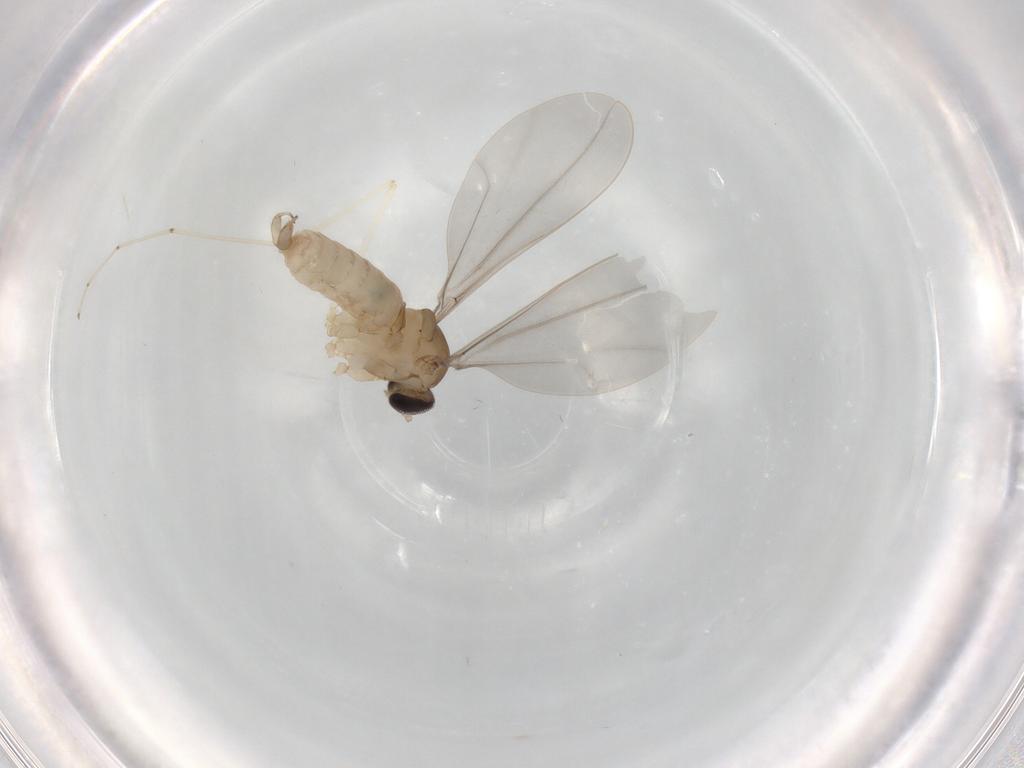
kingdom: Animalia
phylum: Arthropoda
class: Insecta
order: Diptera
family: Cecidomyiidae
